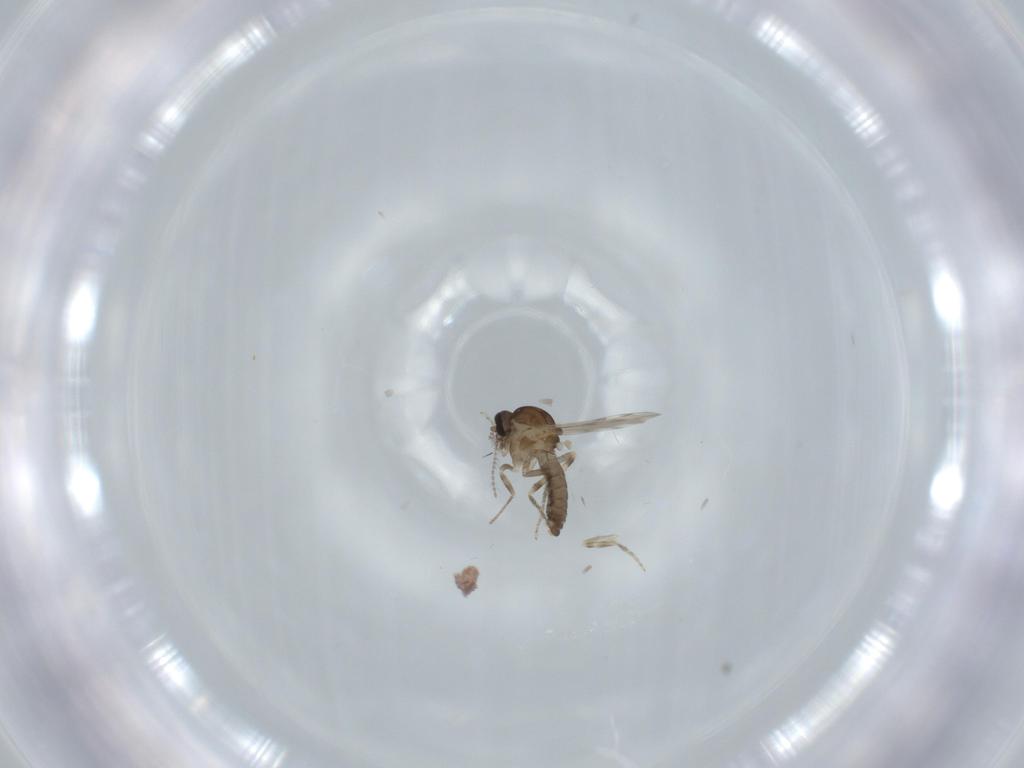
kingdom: Animalia
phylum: Arthropoda
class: Insecta
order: Diptera
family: Ceratopogonidae
